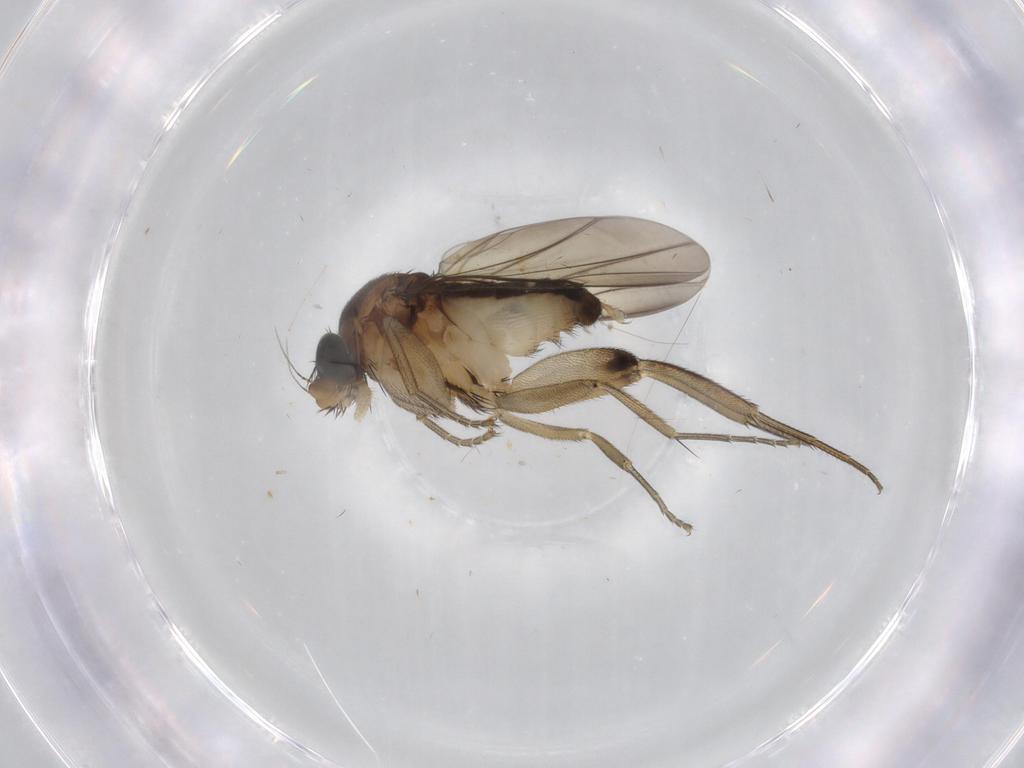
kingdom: Animalia
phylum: Arthropoda
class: Insecta
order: Diptera
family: Phoridae
